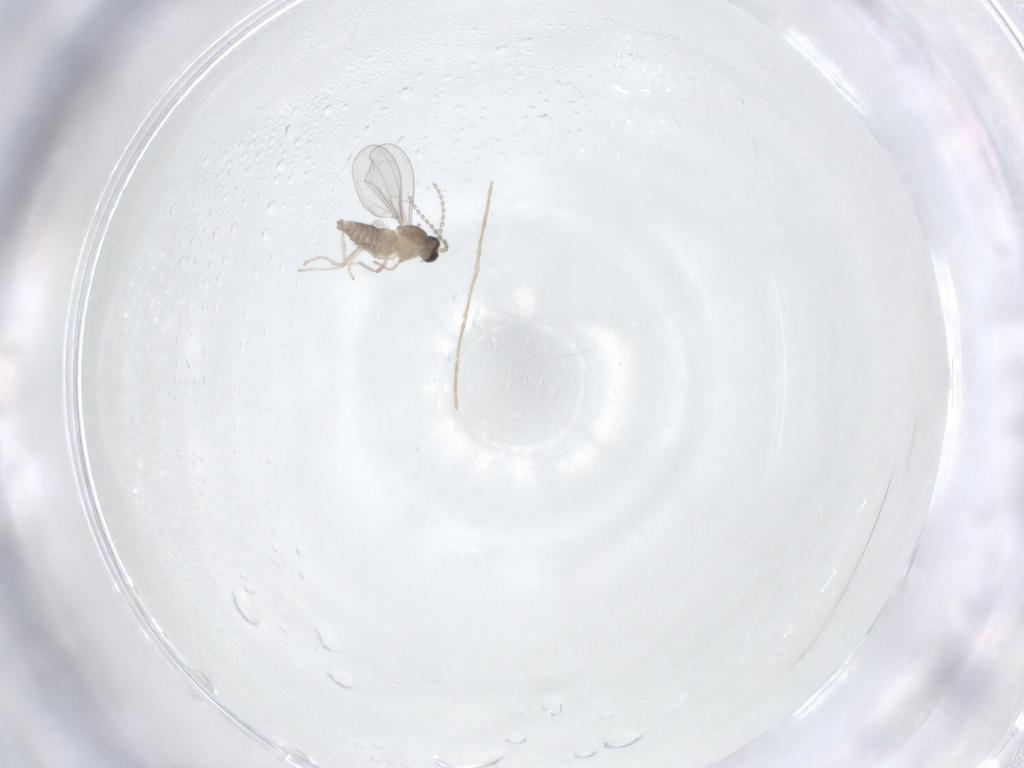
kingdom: Animalia
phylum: Arthropoda
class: Insecta
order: Diptera
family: Cecidomyiidae
